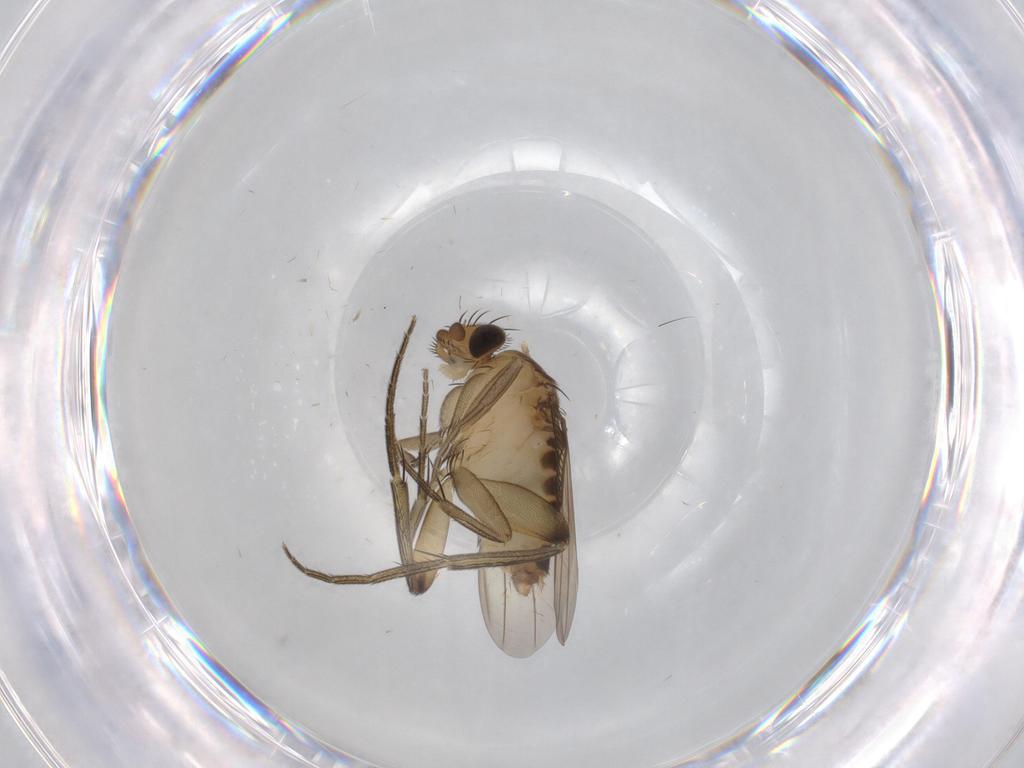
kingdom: Animalia
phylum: Arthropoda
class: Insecta
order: Diptera
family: Phoridae
